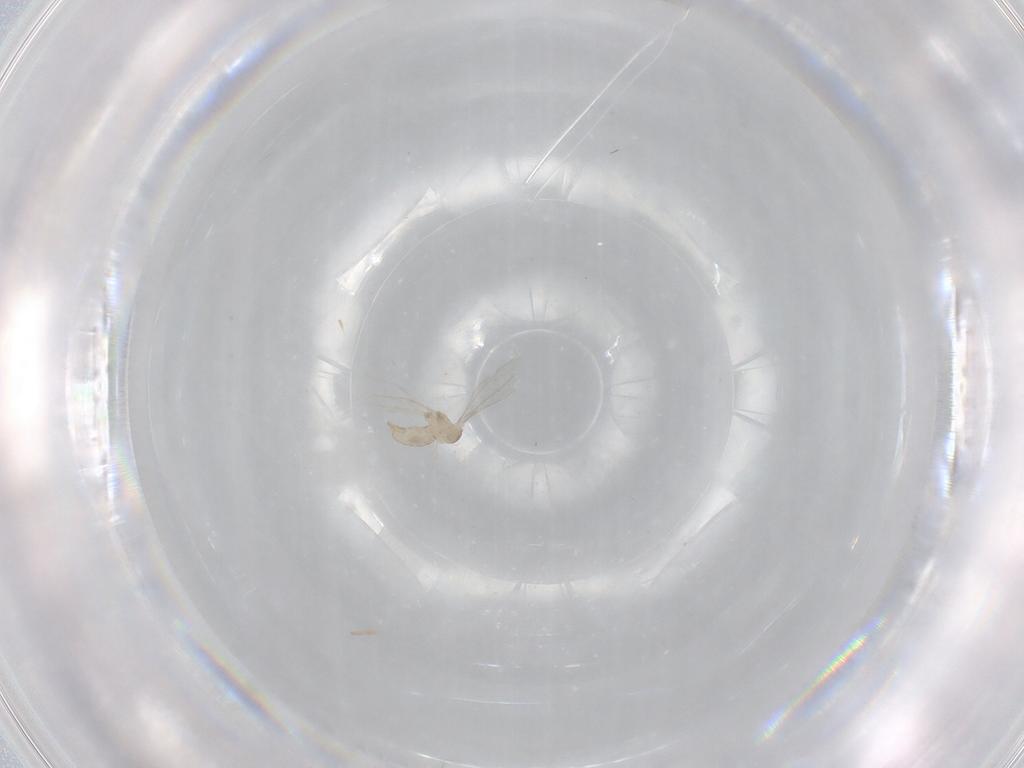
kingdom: Animalia
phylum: Arthropoda
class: Insecta
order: Diptera
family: Cecidomyiidae
